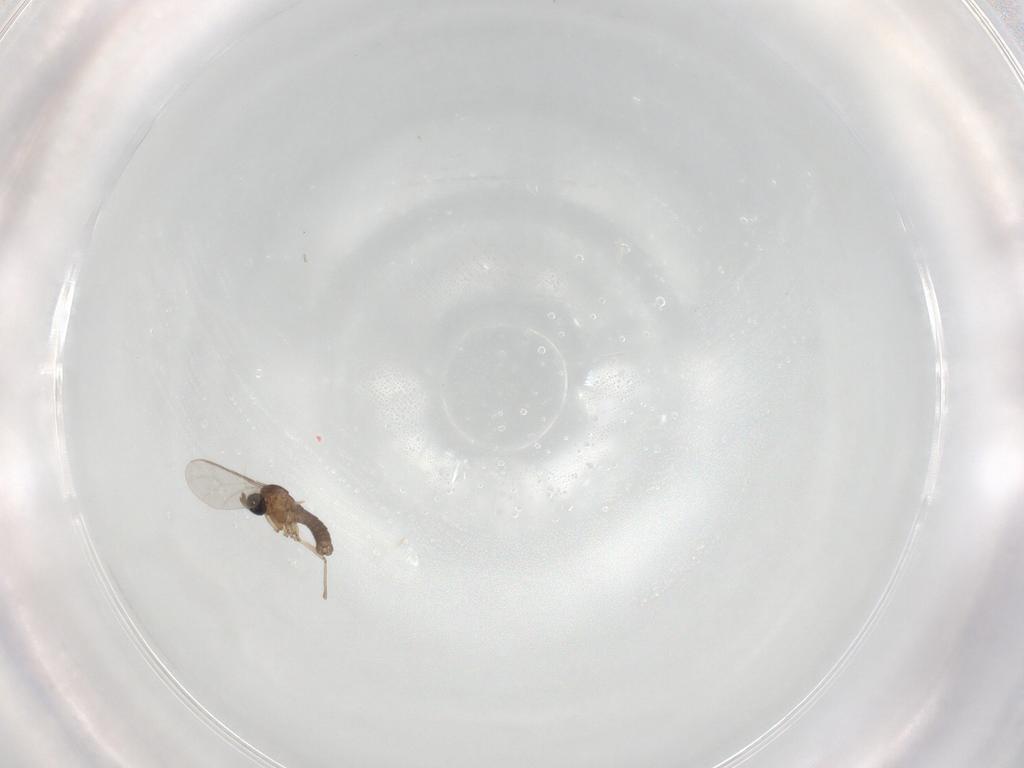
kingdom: Animalia
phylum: Arthropoda
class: Insecta
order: Diptera
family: Sciaridae
